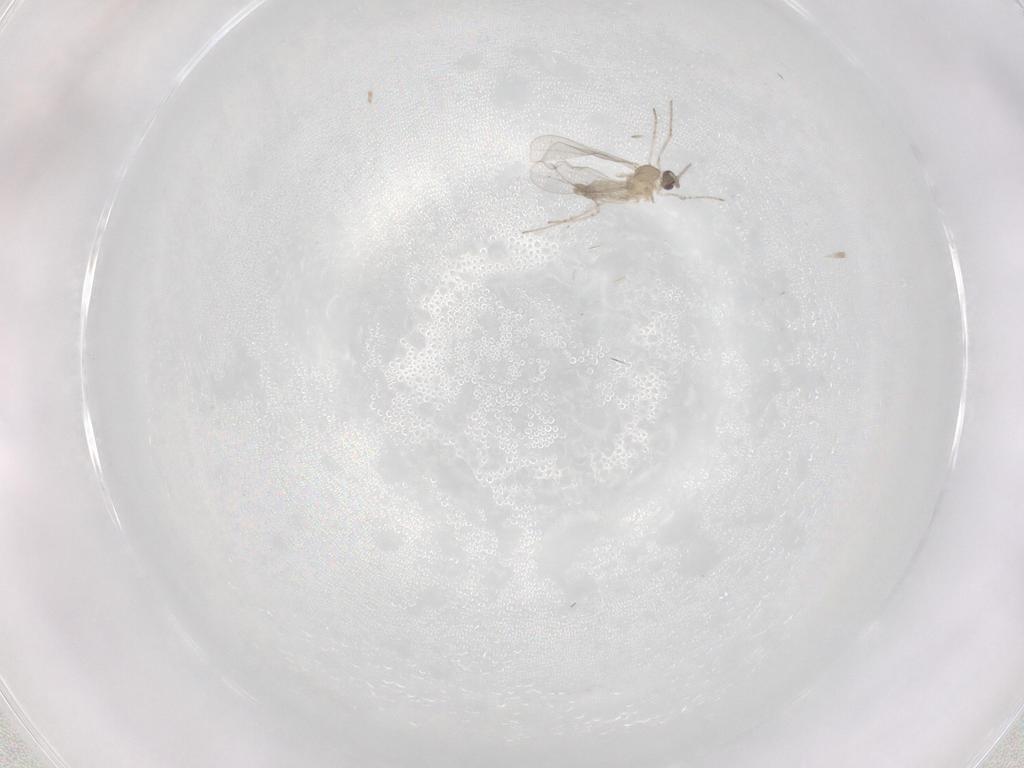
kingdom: Animalia
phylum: Arthropoda
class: Insecta
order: Diptera
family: Cecidomyiidae
